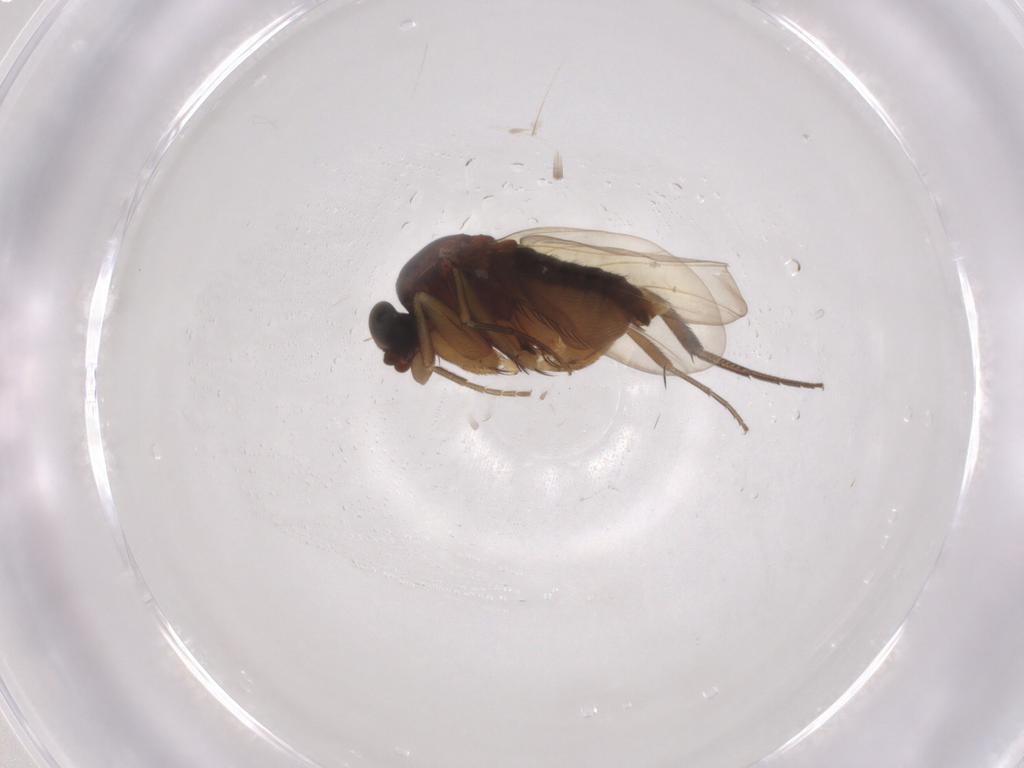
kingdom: Animalia
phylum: Arthropoda
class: Insecta
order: Diptera
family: Phoridae
